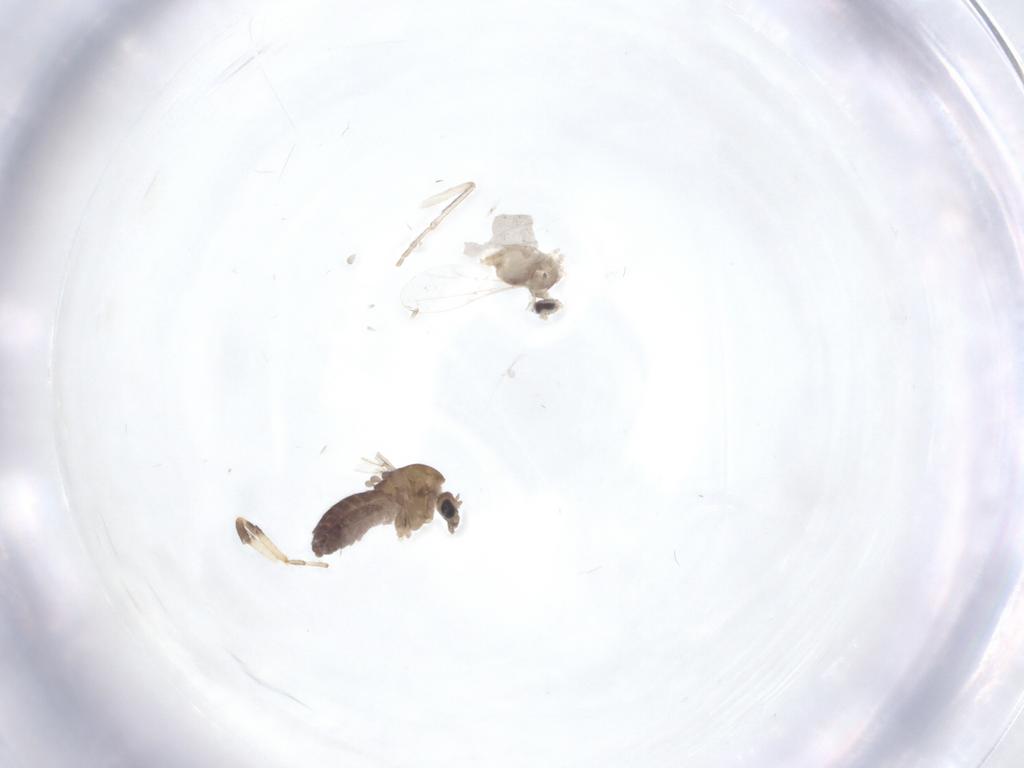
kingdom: Animalia
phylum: Arthropoda
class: Insecta
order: Diptera
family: Cecidomyiidae
